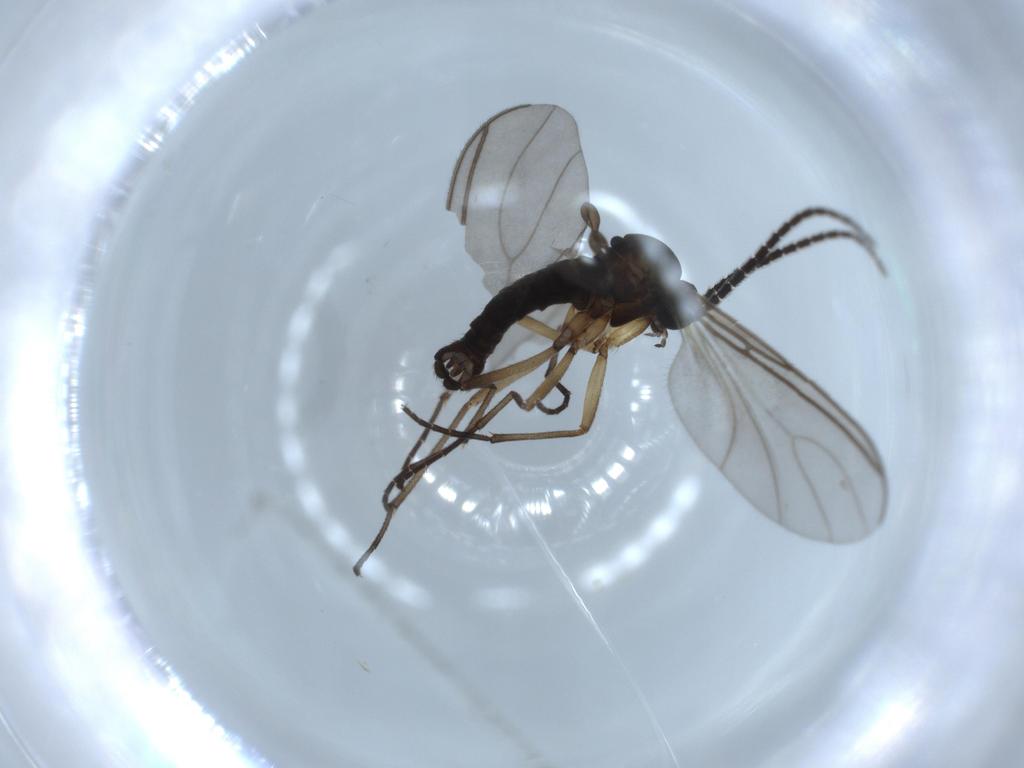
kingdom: Animalia
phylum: Arthropoda
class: Insecta
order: Diptera
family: Sciaridae
